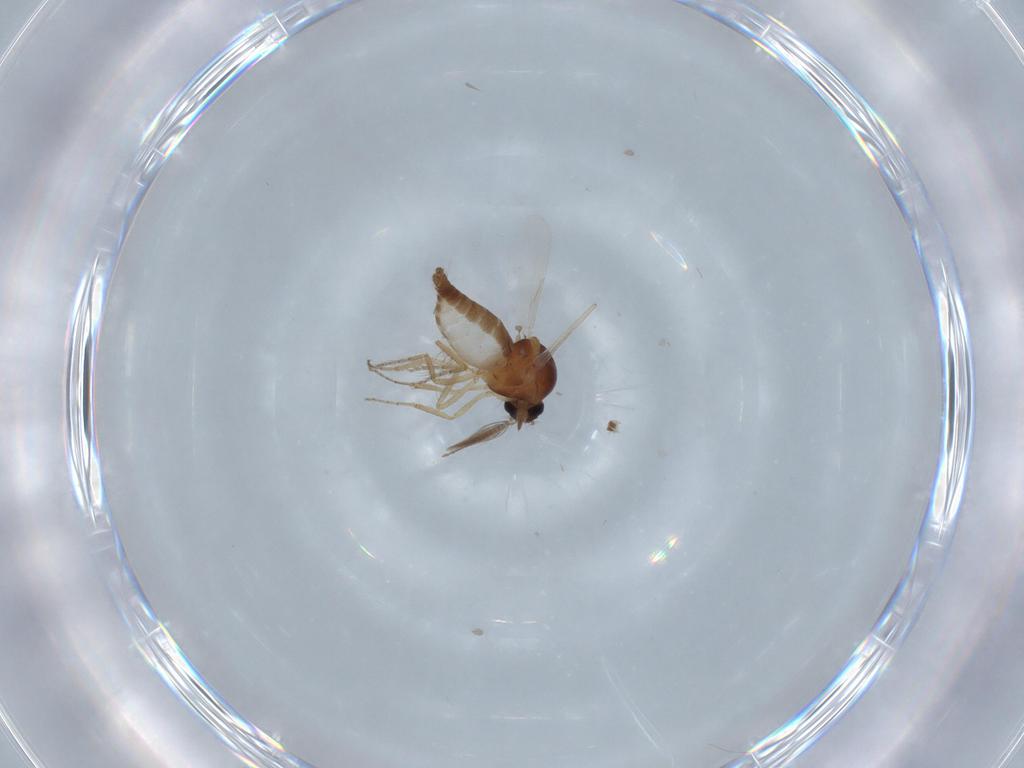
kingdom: Animalia
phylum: Arthropoda
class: Insecta
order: Diptera
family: Ceratopogonidae
